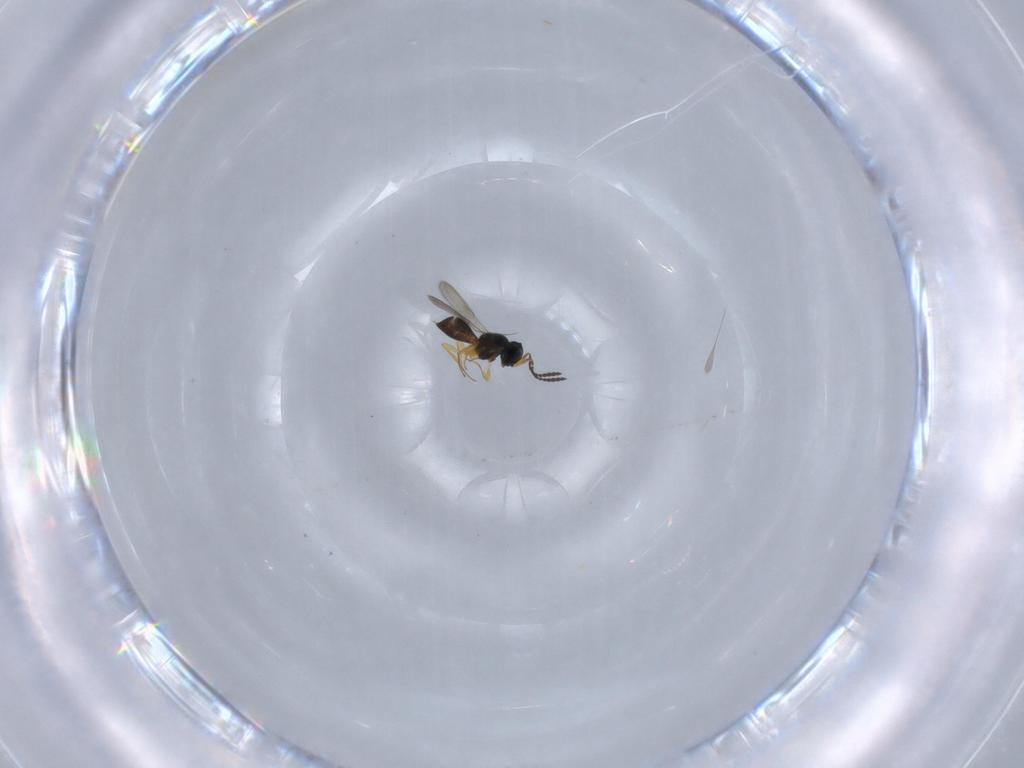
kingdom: Animalia
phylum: Arthropoda
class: Insecta
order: Hymenoptera
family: Scelionidae
